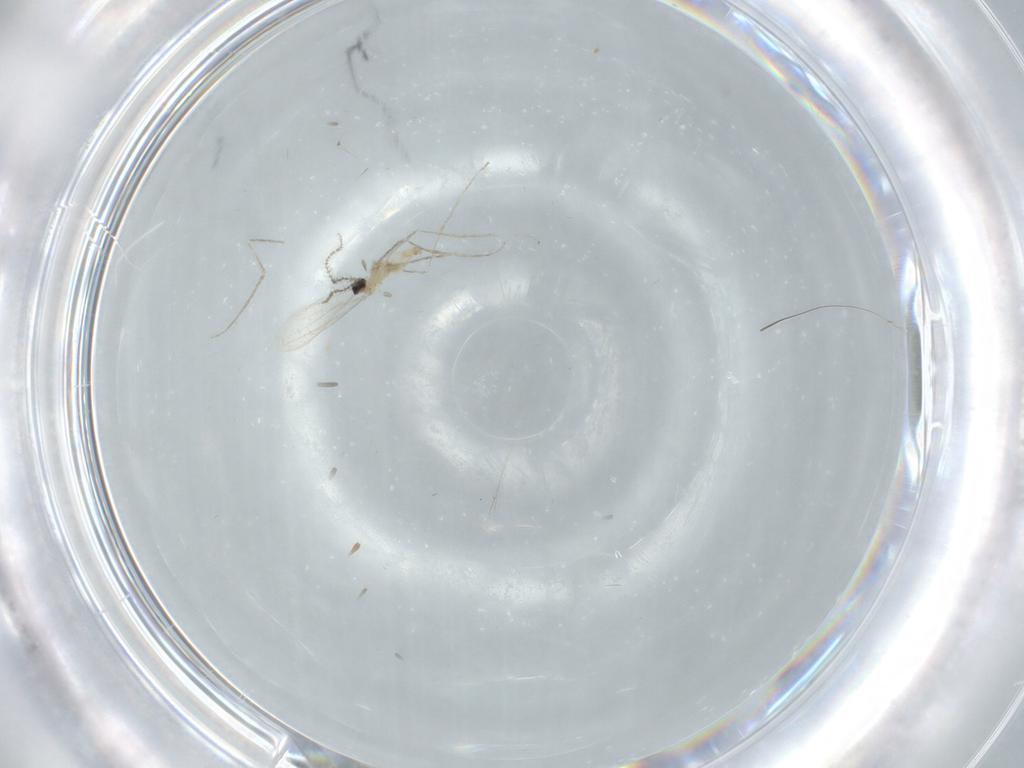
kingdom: Animalia
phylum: Arthropoda
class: Insecta
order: Diptera
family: Cecidomyiidae
